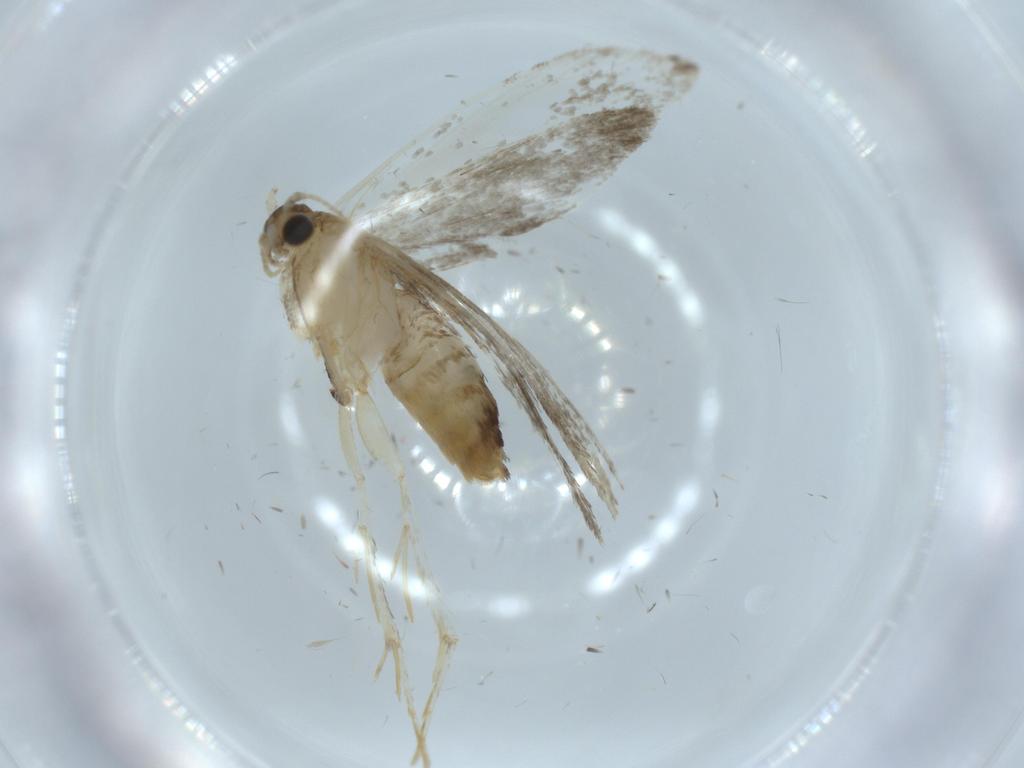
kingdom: Animalia
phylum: Arthropoda
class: Insecta
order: Lepidoptera
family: Tineidae
